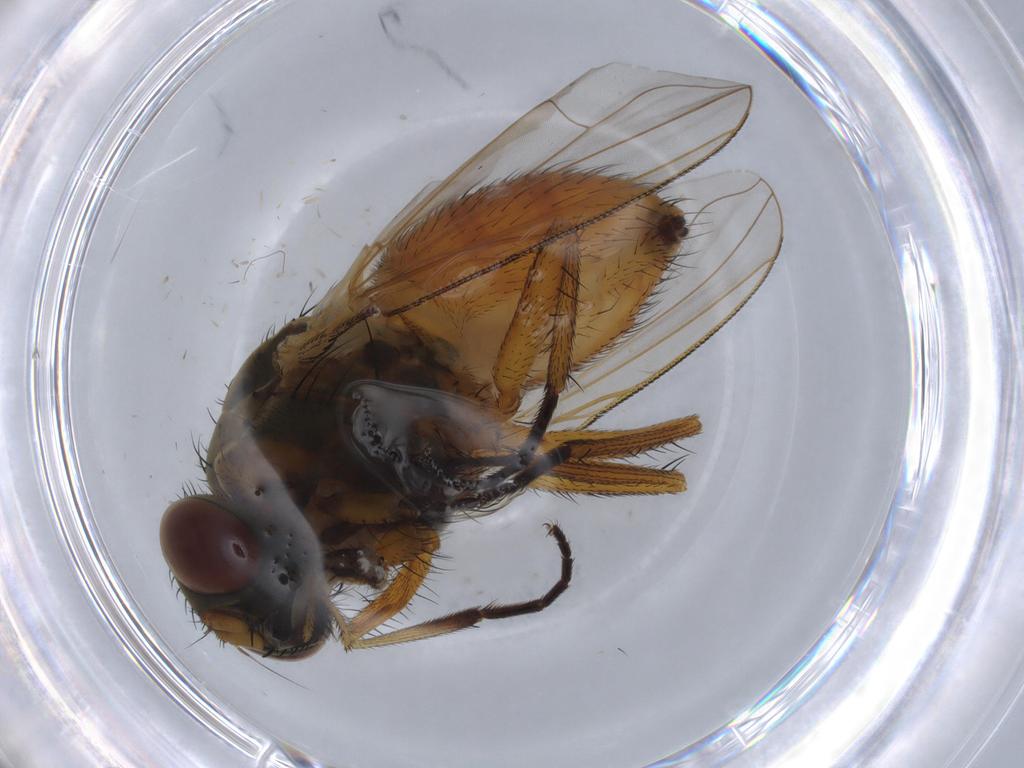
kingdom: Animalia
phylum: Arthropoda
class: Insecta
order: Diptera
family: Muscidae
